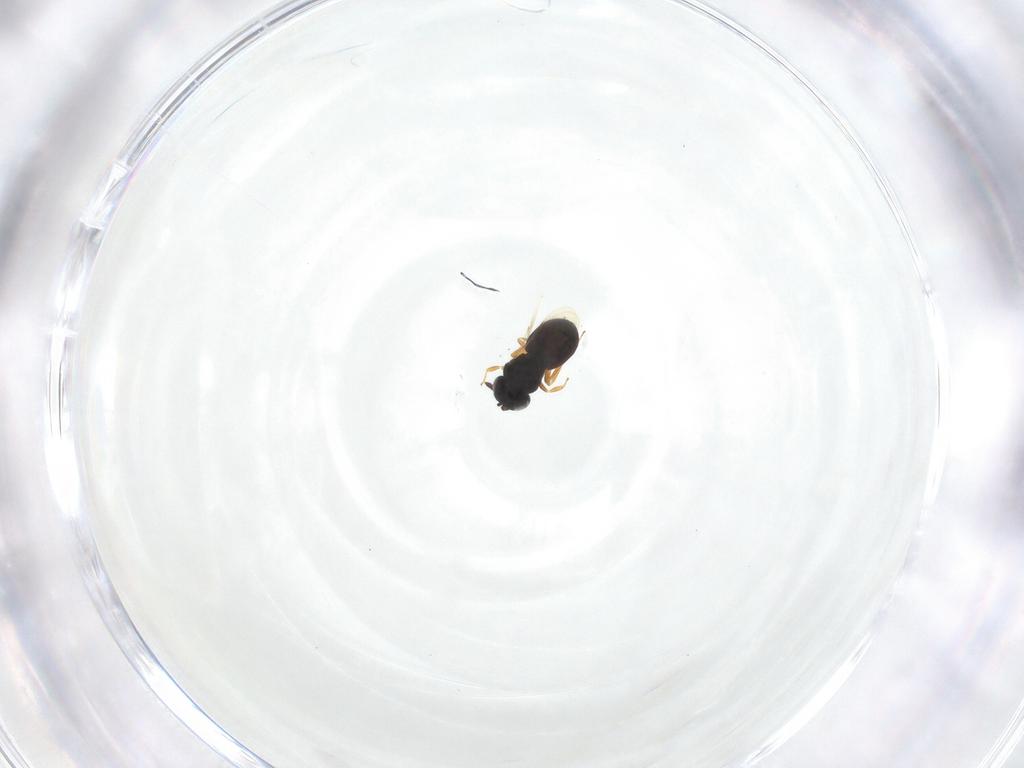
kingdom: Animalia
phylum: Arthropoda
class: Insecta
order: Hymenoptera
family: Scelionidae
